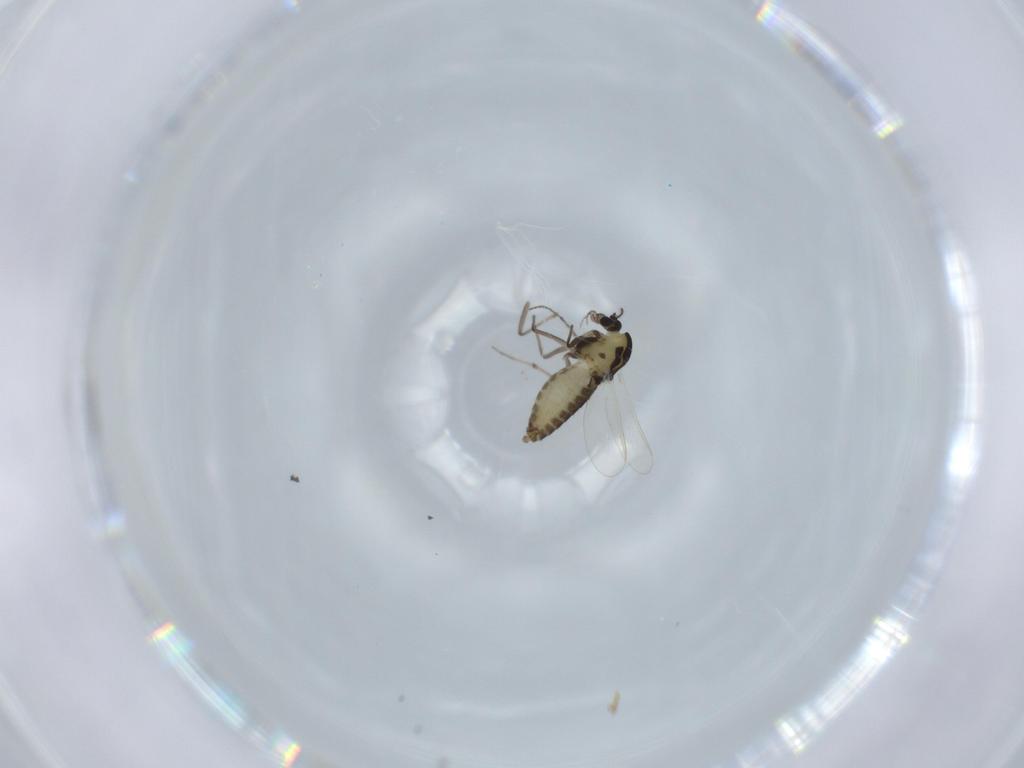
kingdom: Animalia
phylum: Arthropoda
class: Insecta
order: Diptera
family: Chironomidae
